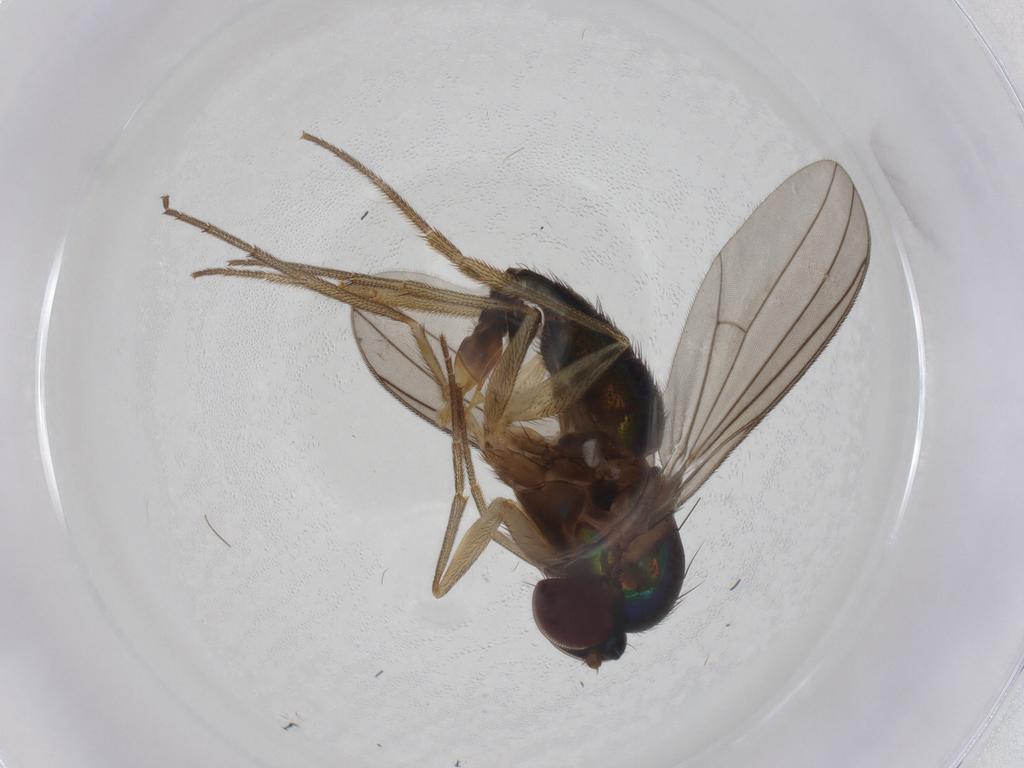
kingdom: Animalia
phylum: Arthropoda
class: Insecta
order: Diptera
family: Chironomidae
